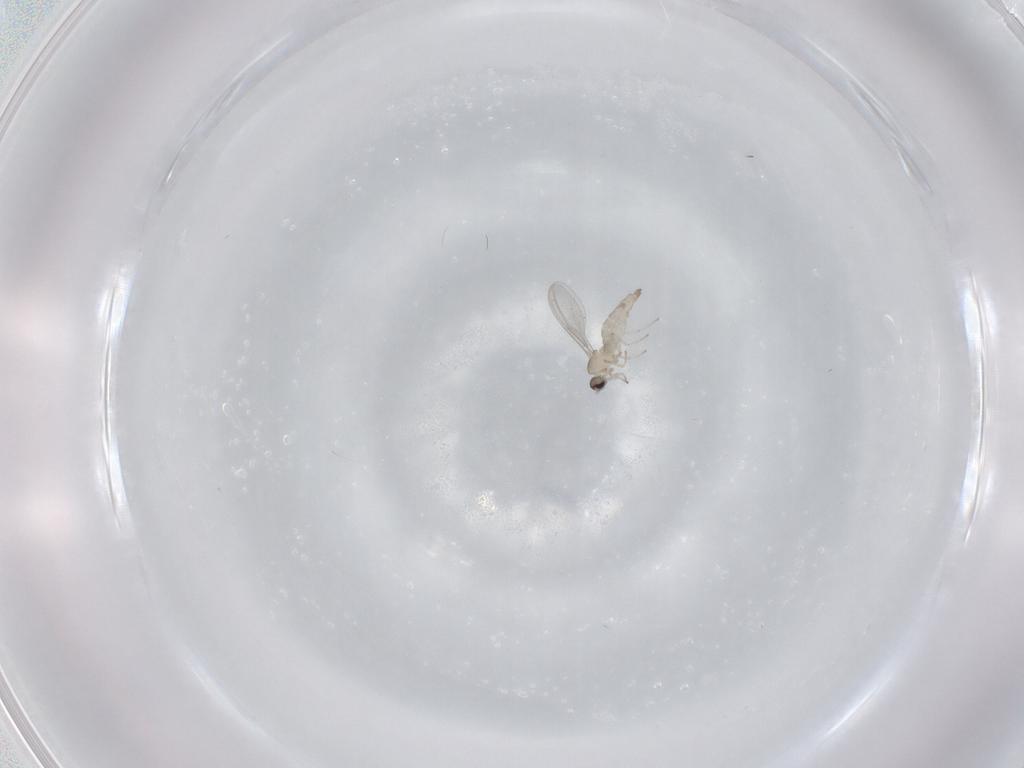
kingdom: Animalia
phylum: Arthropoda
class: Insecta
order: Diptera
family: Cecidomyiidae
